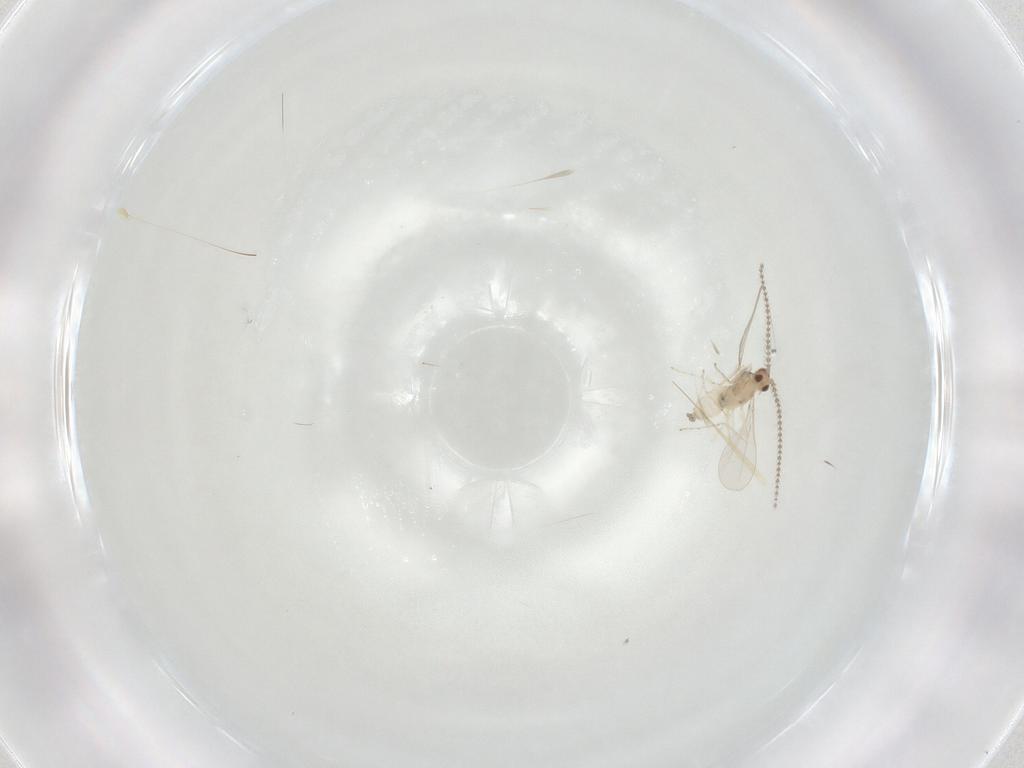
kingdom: Animalia
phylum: Arthropoda
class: Insecta
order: Diptera
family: Cecidomyiidae
